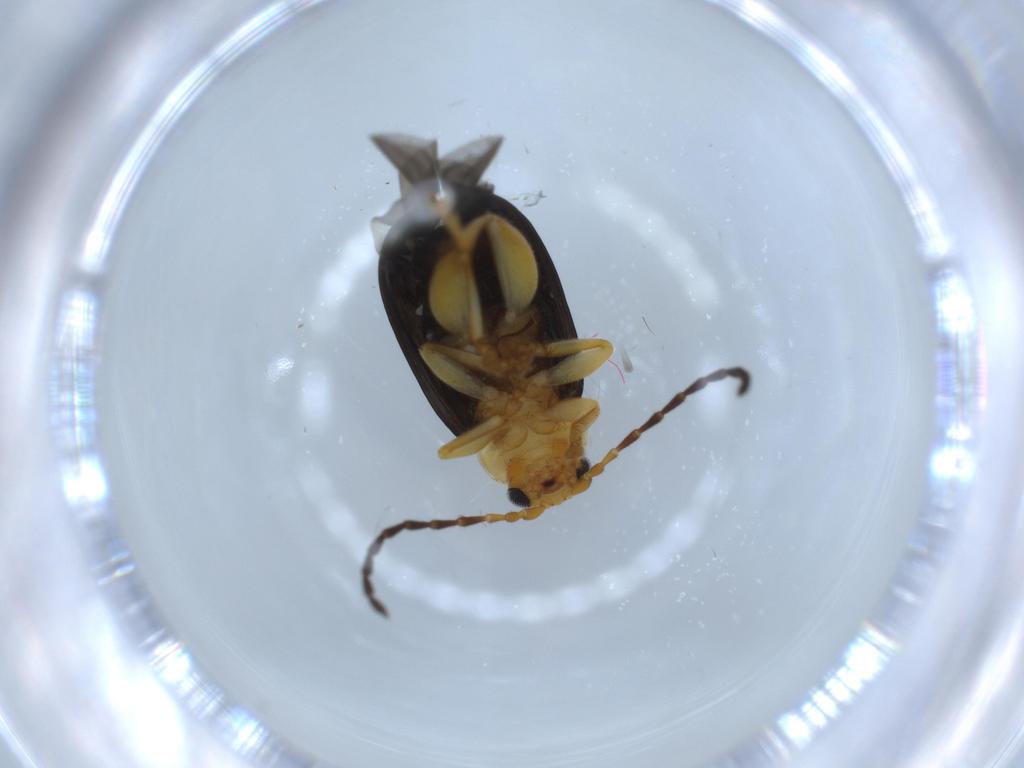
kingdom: Animalia
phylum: Arthropoda
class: Insecta
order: Coleoptera
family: Chrysomelidae
